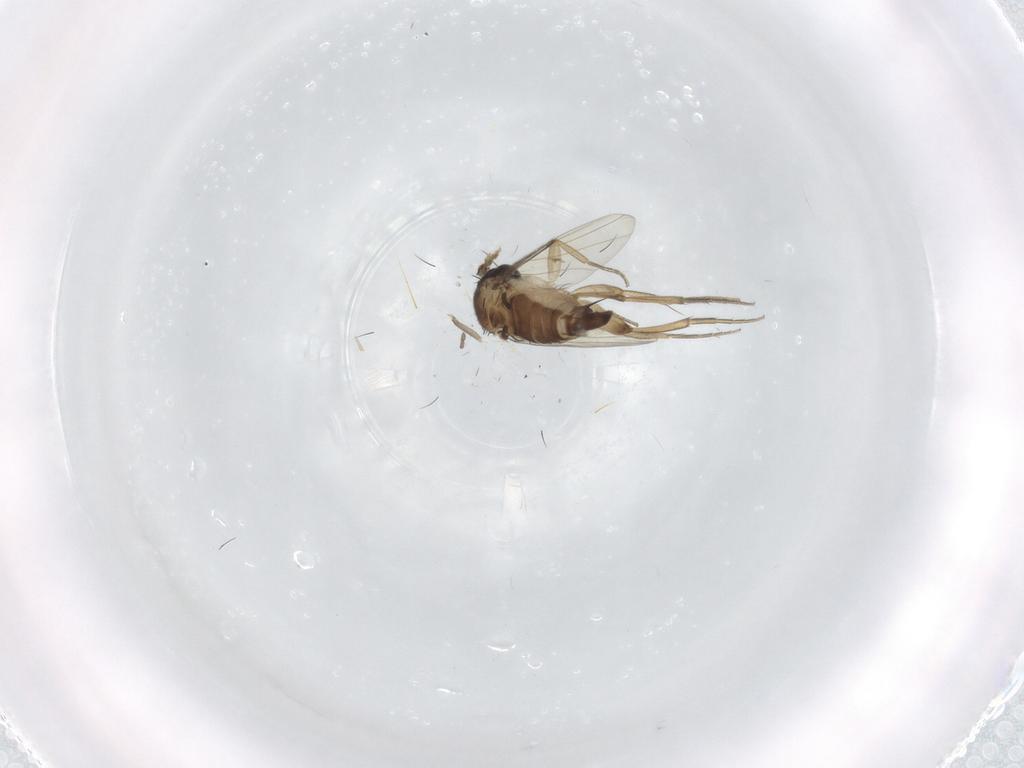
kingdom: Animalia
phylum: Arthropoda
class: Insecta
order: Diptera
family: Phoridae
